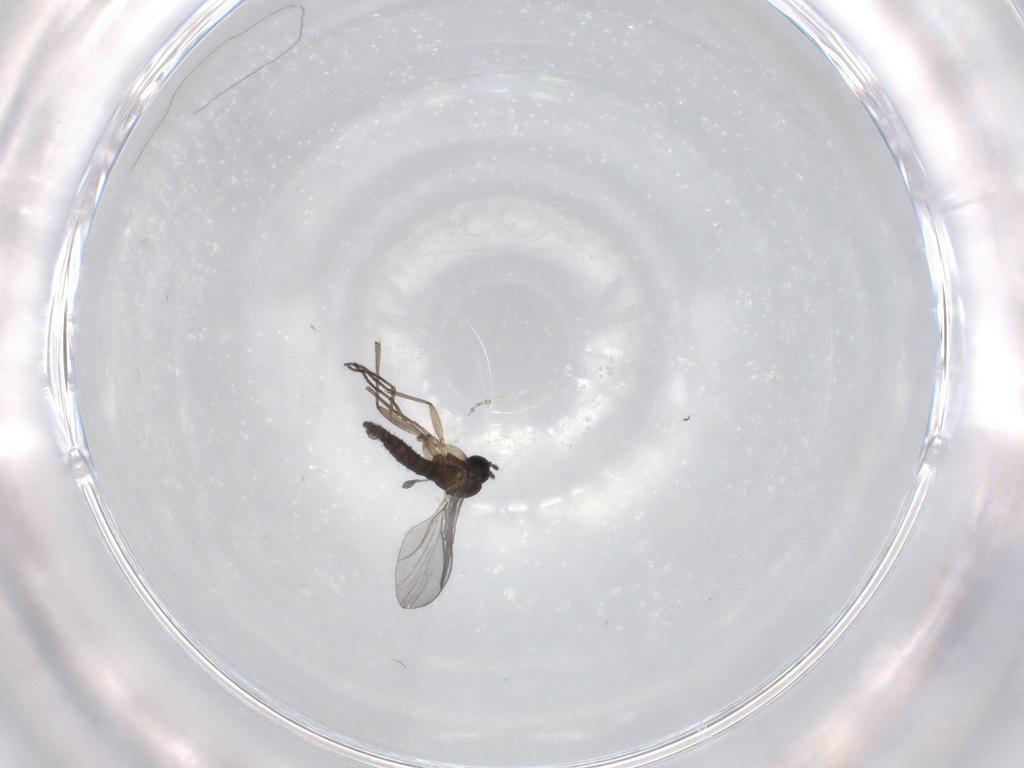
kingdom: Animalia
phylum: Arthropoda
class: Insecta
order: Diptera
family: Sciaridae
